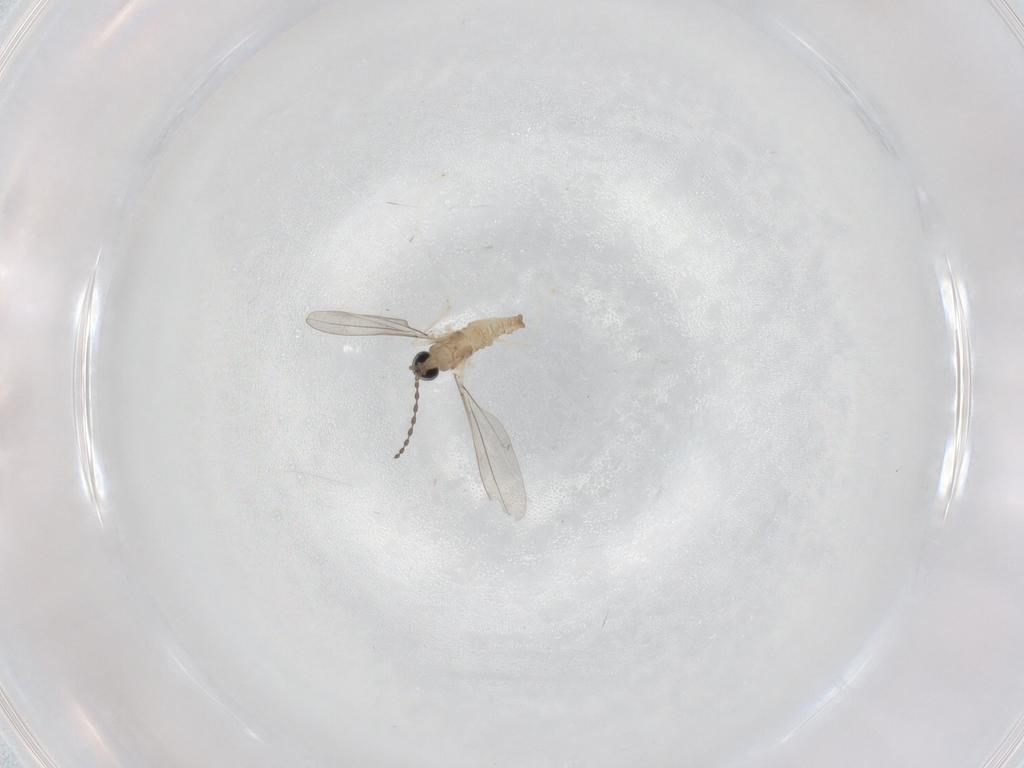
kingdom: Animalia
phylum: Arthropoda
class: Insecta
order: Diptera
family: Cecidomyiidae
